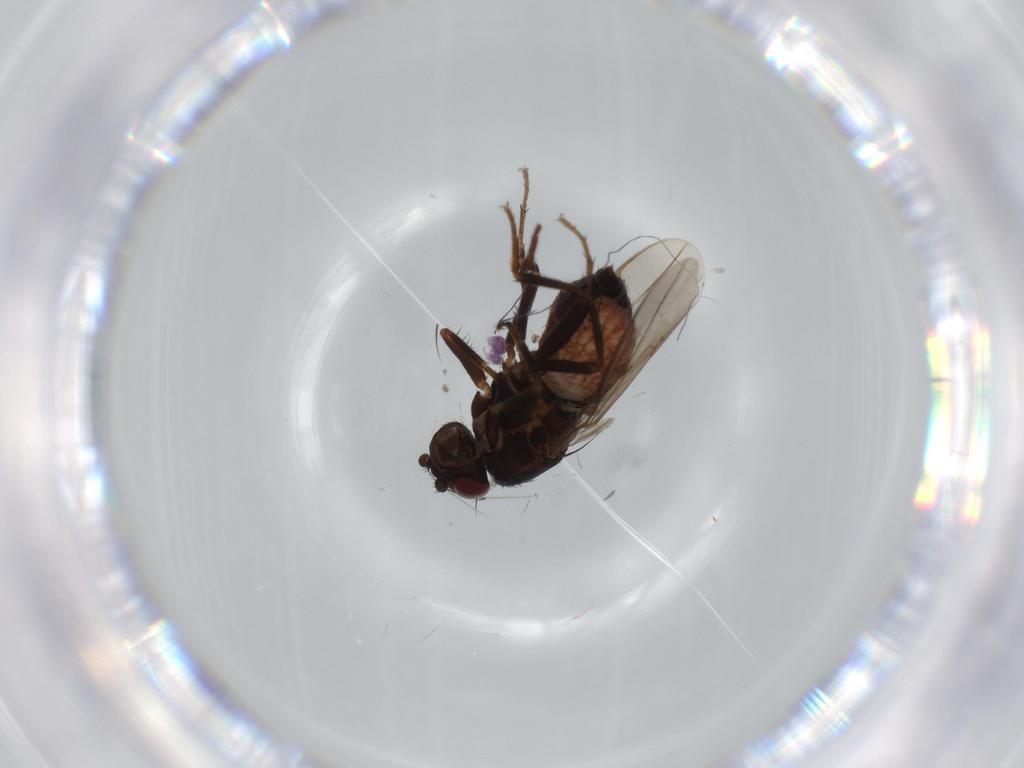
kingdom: Animalia
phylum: Arthropoda
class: Insecta
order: Diptera
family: Sphaeroceridae
